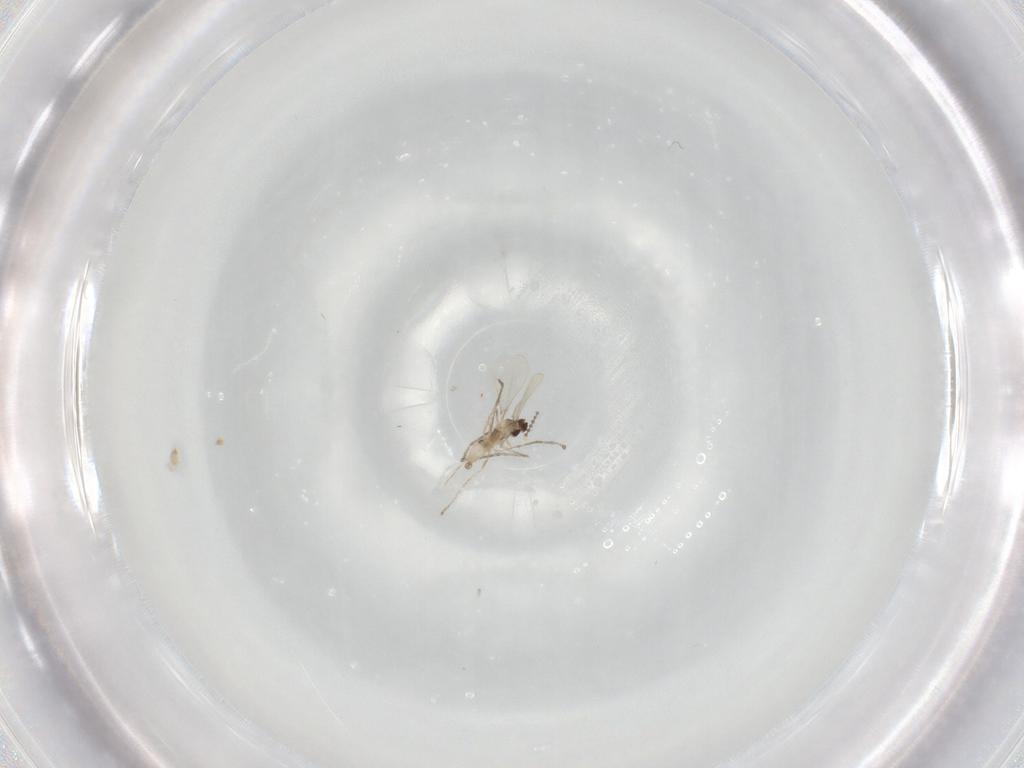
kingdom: Animalia
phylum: Arthropoda
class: Insecta
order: Diptera
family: Cecidomyiidae
